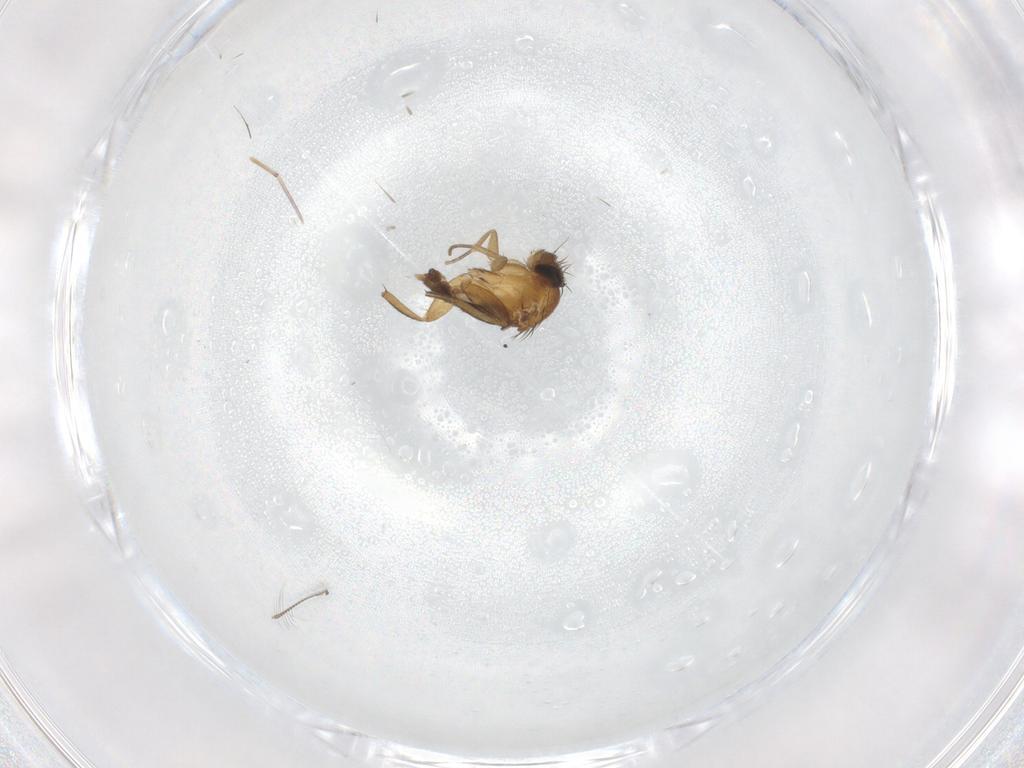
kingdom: Animalia
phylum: Arthropoda
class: Insecta
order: Diptera
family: Phoridae
